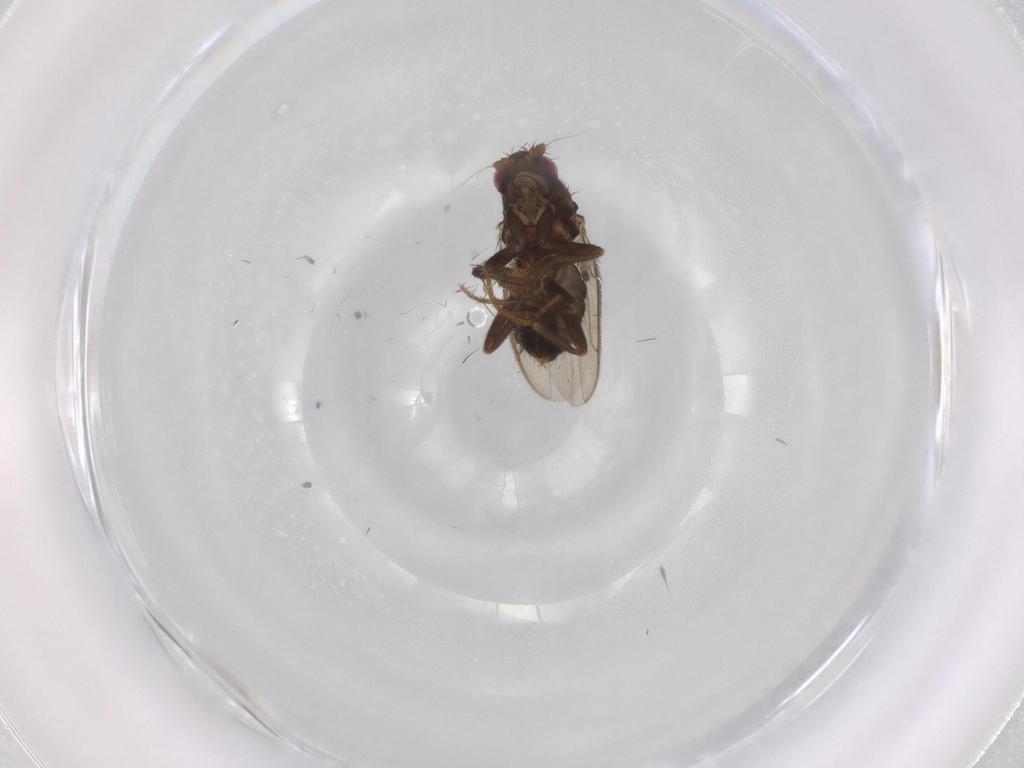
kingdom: Animalia
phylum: Arthropoda
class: Insecta
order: Diptera
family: Sphaeroceridae
